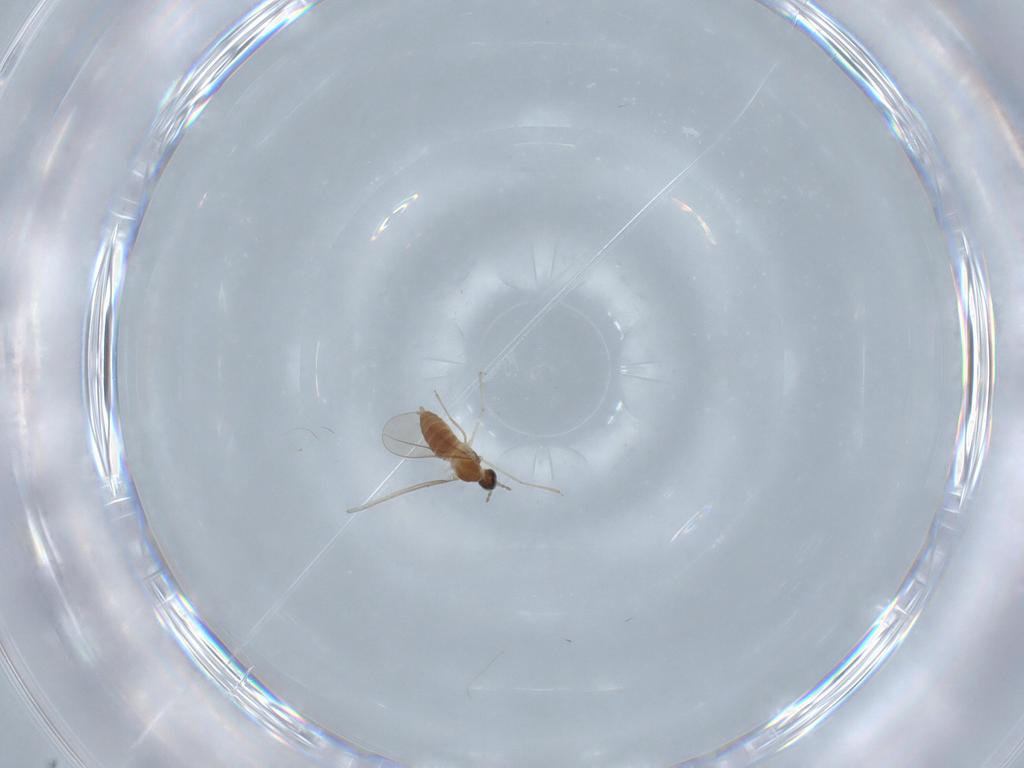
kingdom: Animalia
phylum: Arthropoda
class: Insecta
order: Diptera
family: Cecidomyiidae
